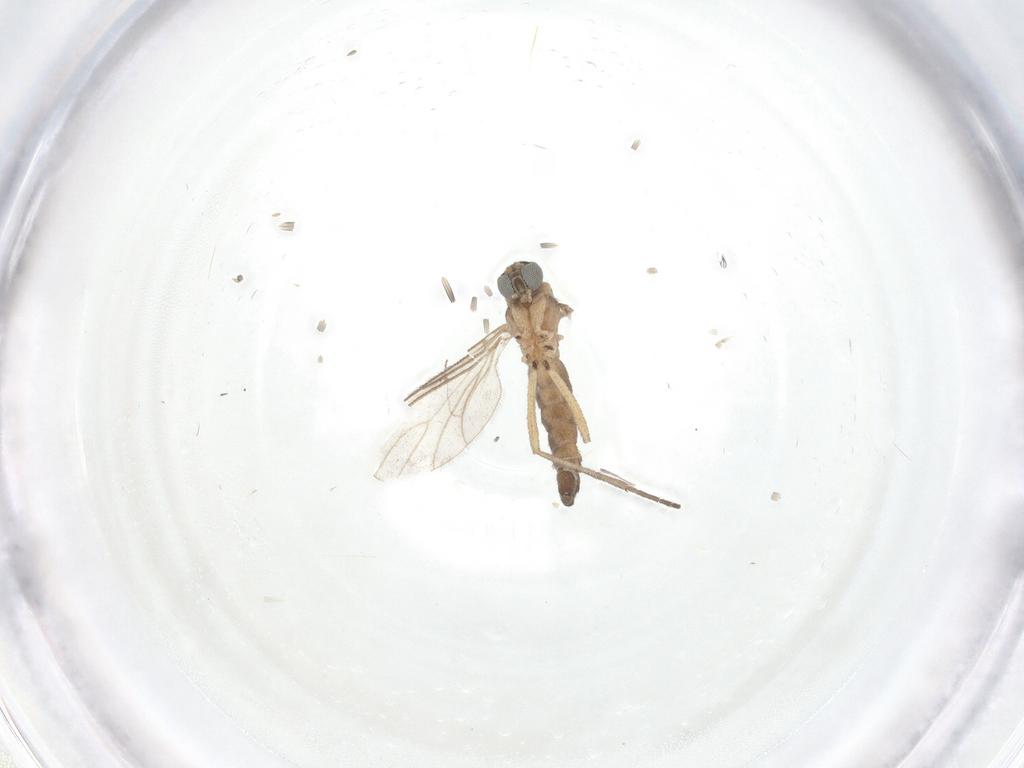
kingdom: Animalia
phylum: Arthropoda
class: Insecta
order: Diptera
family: Sciaridae
